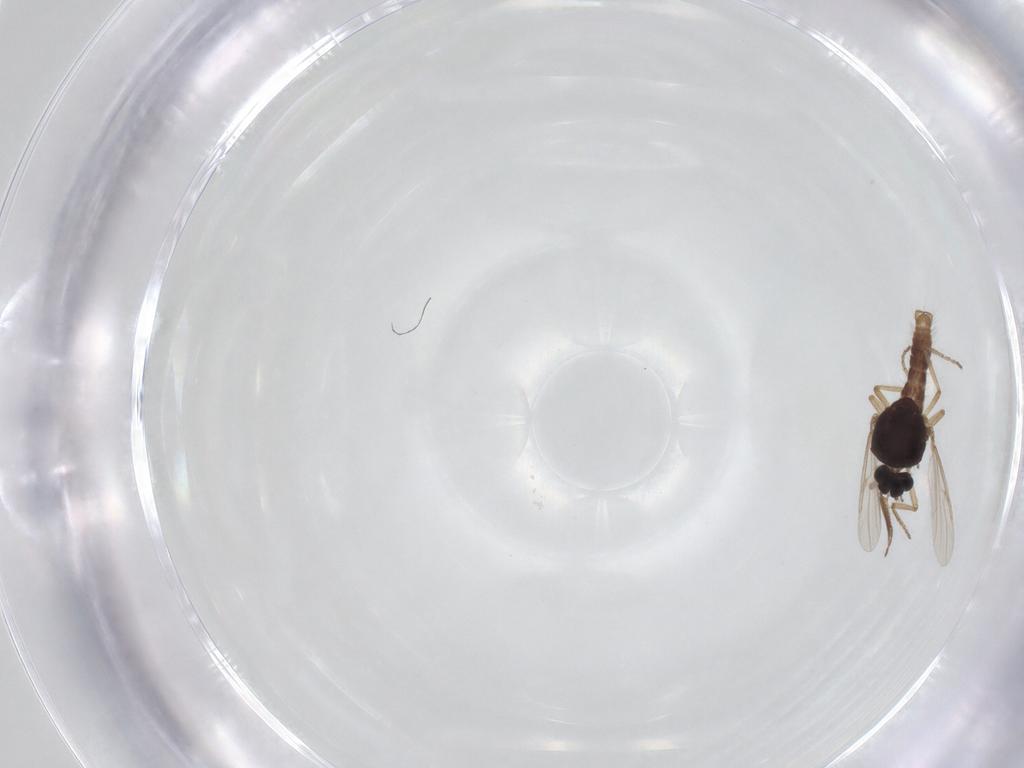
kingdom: Animalia
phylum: Arthropoda
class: Insecta
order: Diptera
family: Ceratopogonidae
